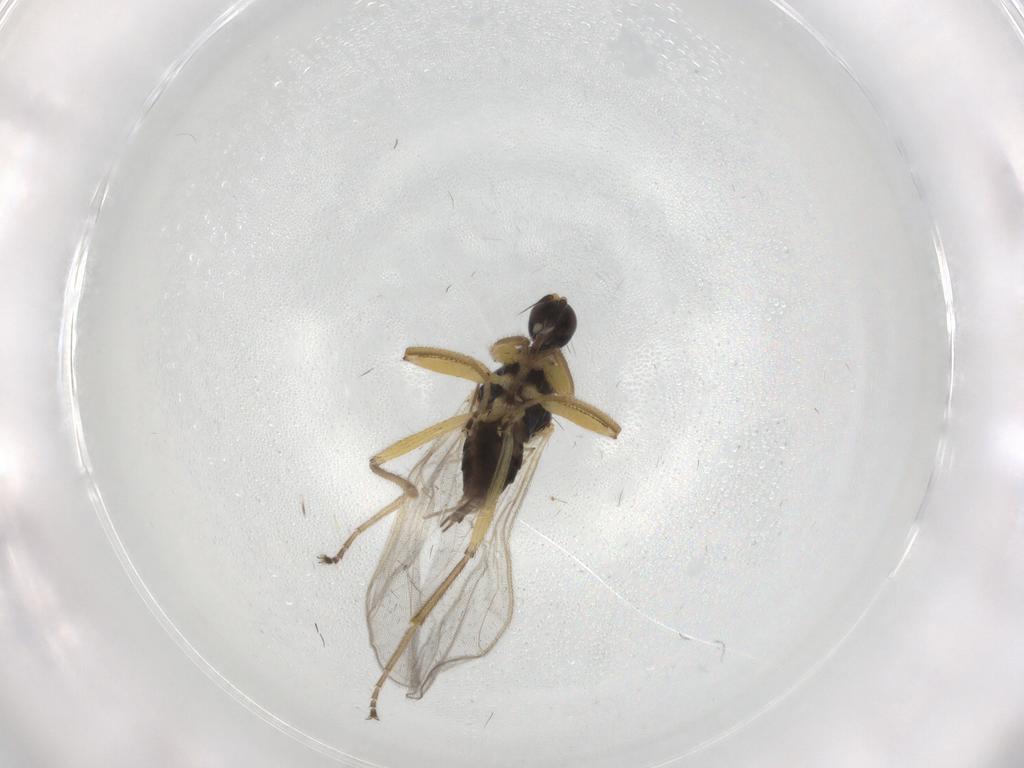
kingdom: Animalia
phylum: Arthropoda
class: Insecta
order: Diptera
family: Hybotidae
